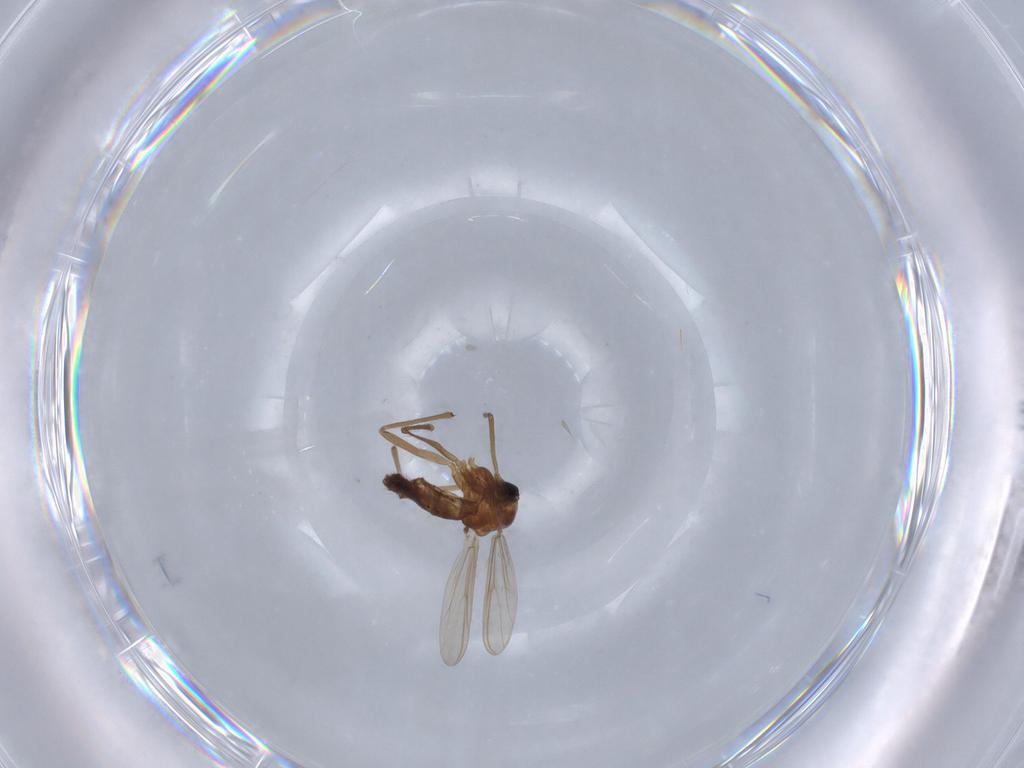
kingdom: Animalia
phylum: Arthropoda
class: Insecta
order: Diptera
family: Chironomidae
